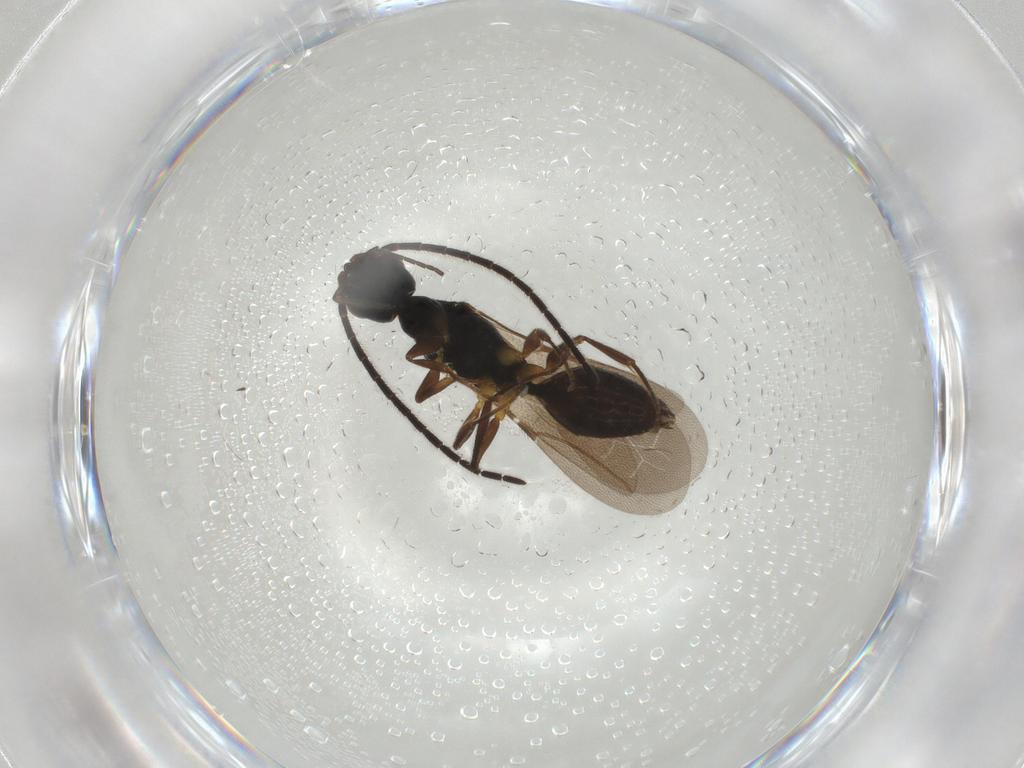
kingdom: Animalia
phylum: Arthropoda
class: Insecta
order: Hymenoptera
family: Bethylidae
